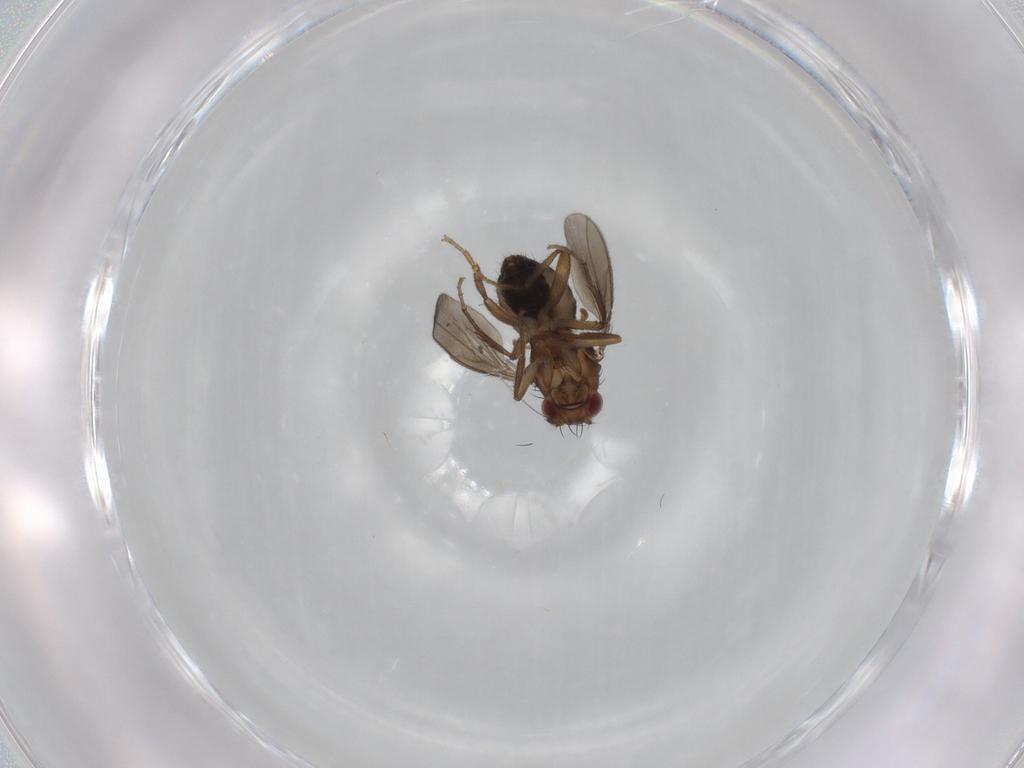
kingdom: Animalia
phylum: Arthropoda
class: Insecta
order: Diptera
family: Sphaeroceridae
